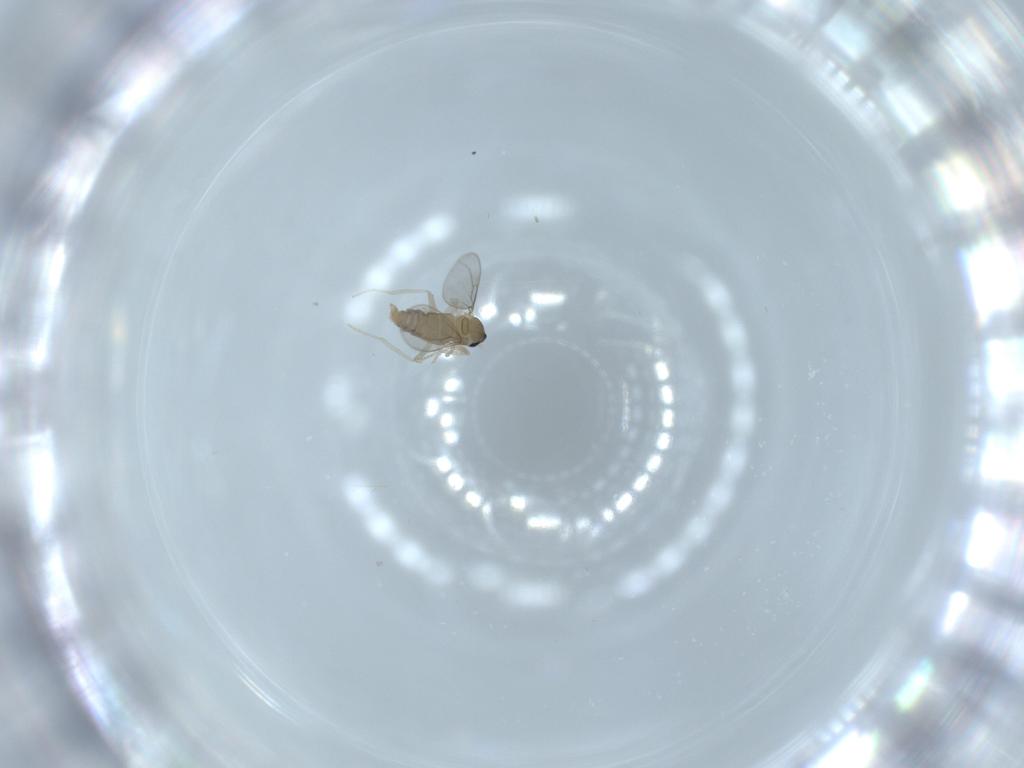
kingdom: Animalia
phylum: Arthropoda
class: Insecta
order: Diptera
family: Cecidomyiidae
